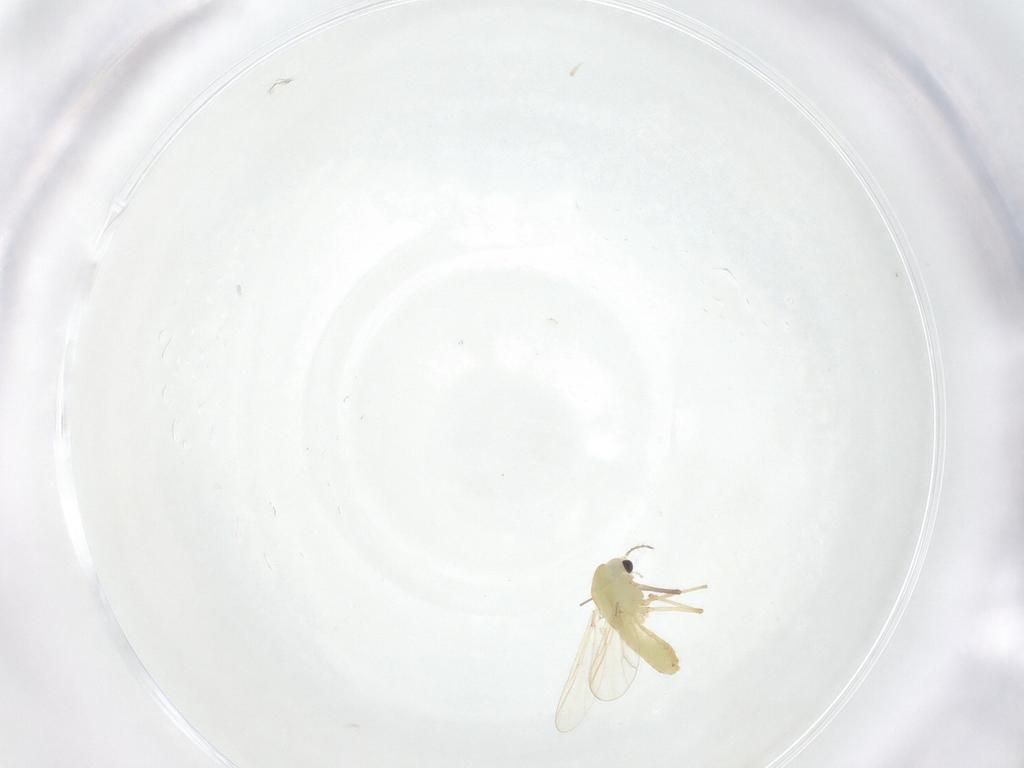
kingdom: Animalia
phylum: Arthropoda
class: Insecta
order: Diptera
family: Chironomidae
